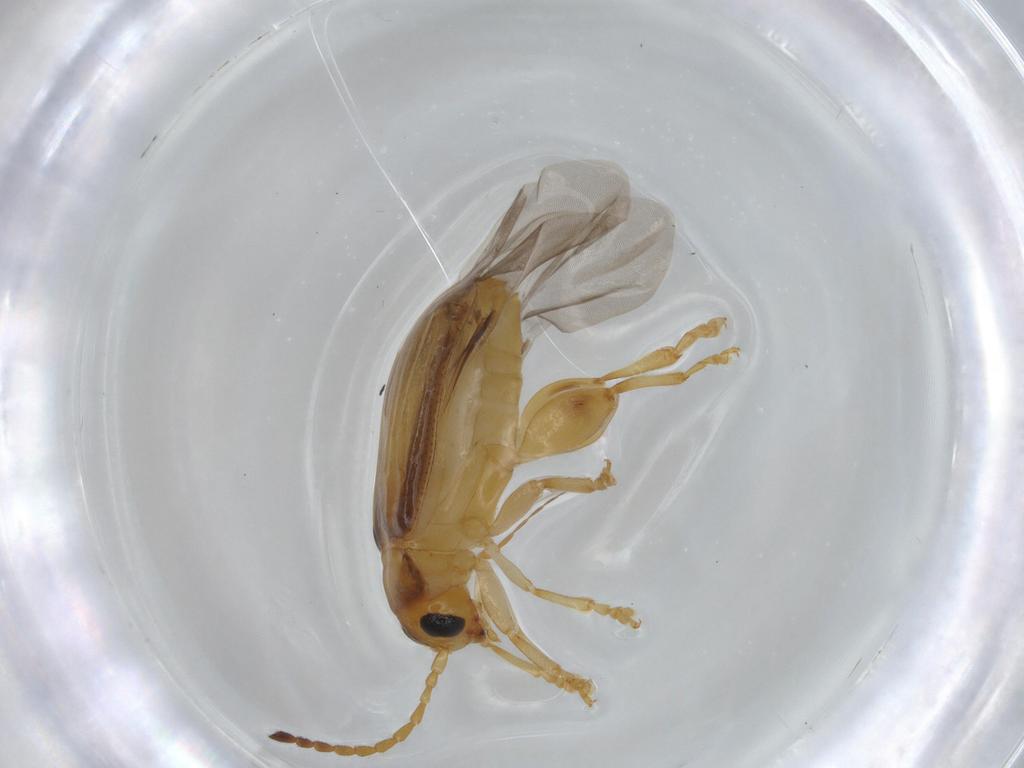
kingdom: Animalia
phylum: Arthropoda
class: Insecta
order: Coleoptera
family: Chrysomelidae
